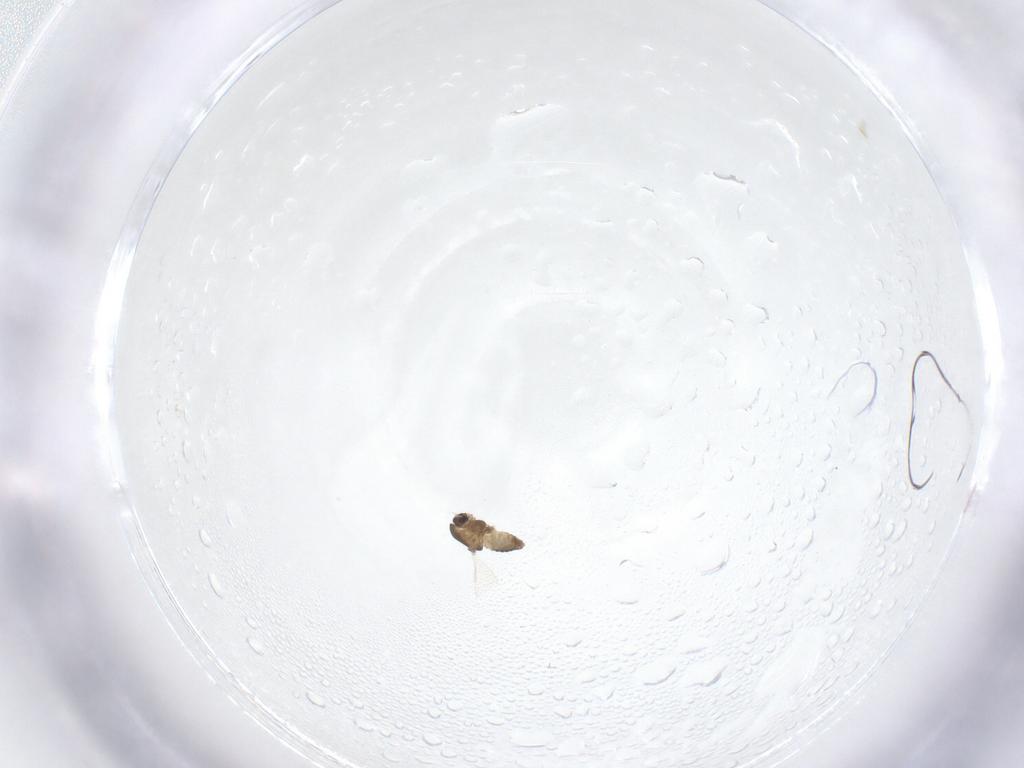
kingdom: Animalia
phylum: Arthropoda
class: Insecta
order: Diptera
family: Chironomidae
